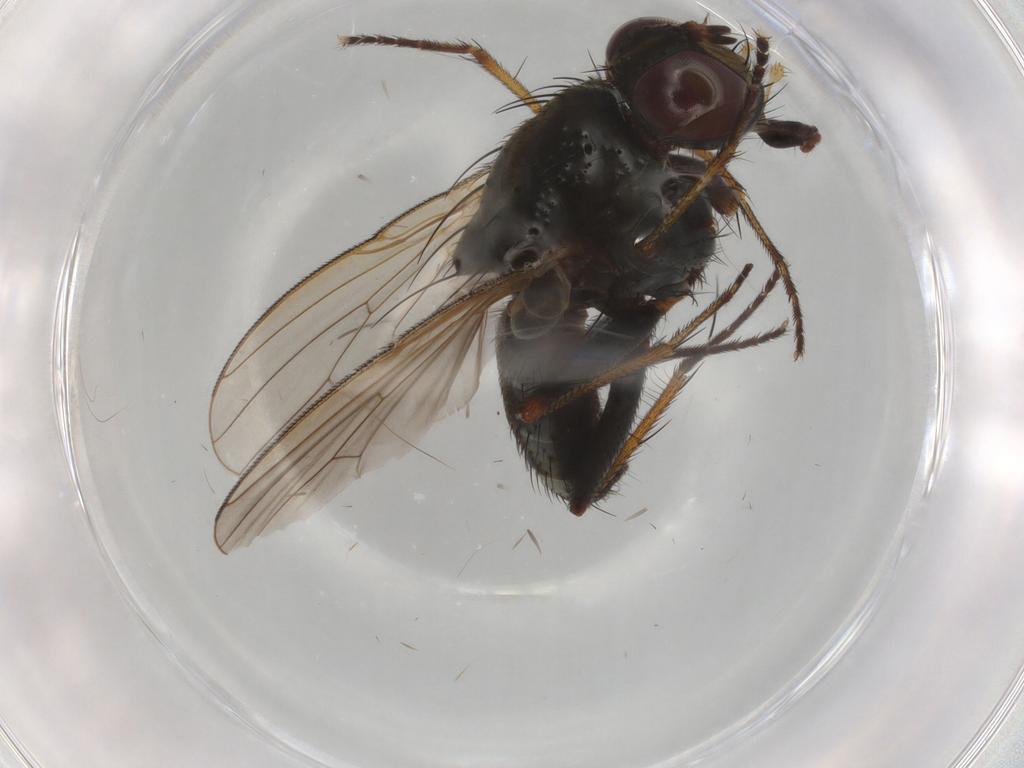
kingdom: Animalia
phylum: Arthropoda
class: Insecta
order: Diptera
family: Muscidae
